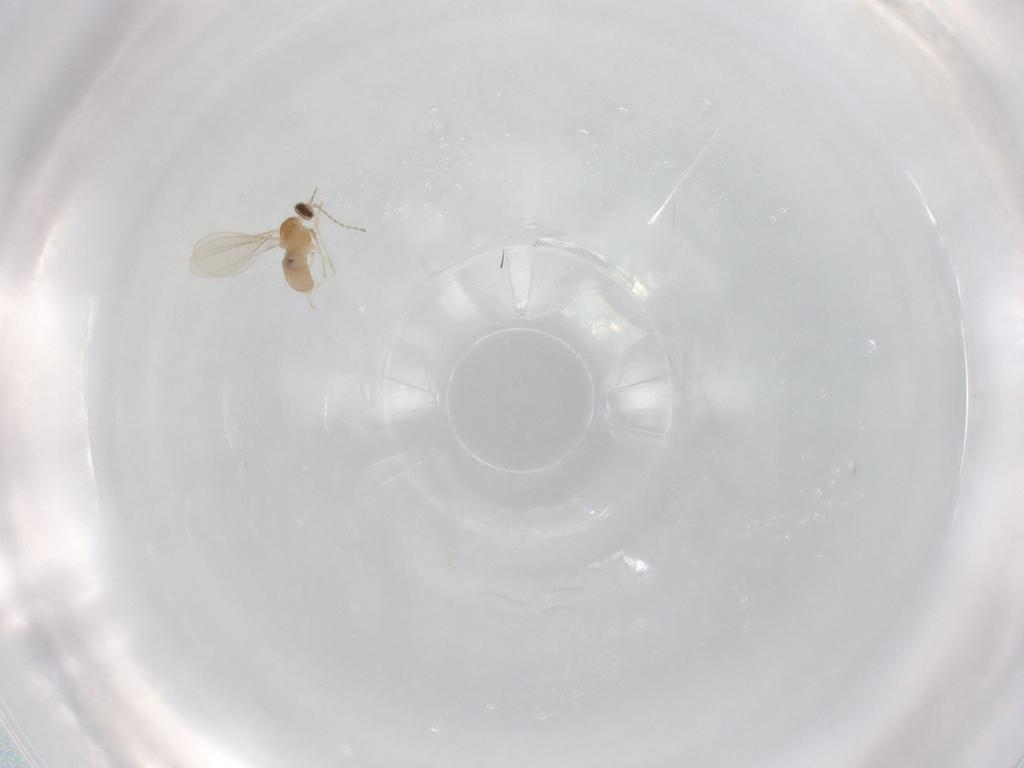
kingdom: Animalia
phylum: Arthropoda
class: Insecta
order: Diptera
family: Cecidomyiidae
